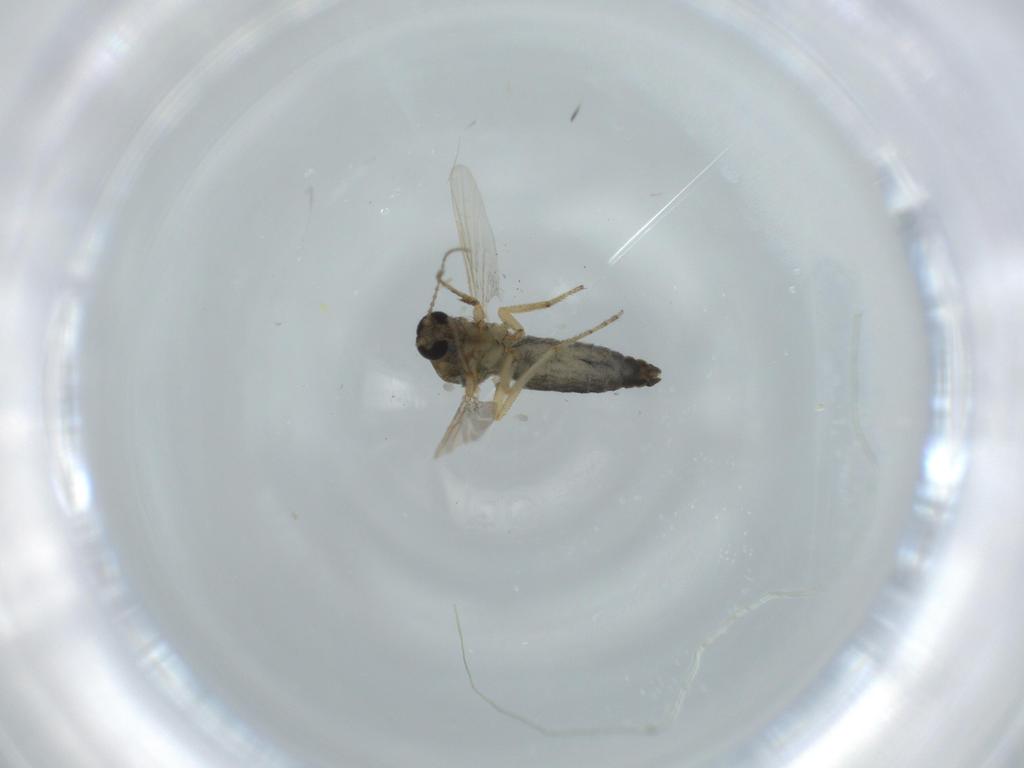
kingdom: Animalia
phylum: Arthropoda
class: Insecta
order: Diptera
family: Ceratopogonidae
